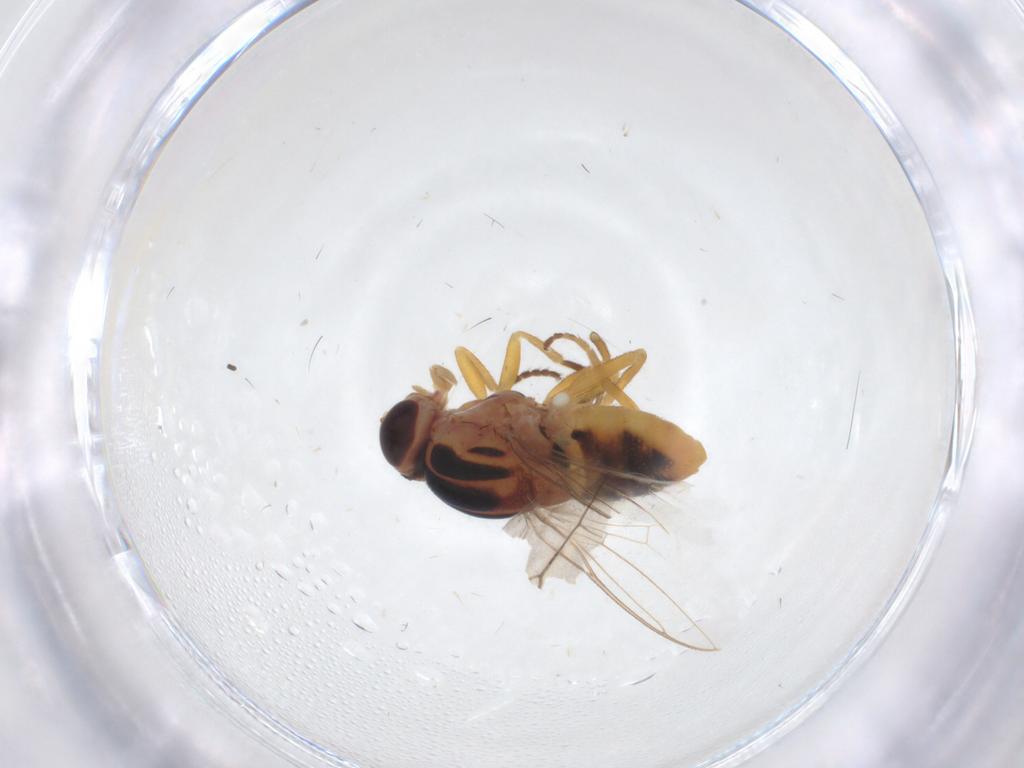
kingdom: Animalia
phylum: Arthropoda
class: Insecta
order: Diptera
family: Chloropidae
